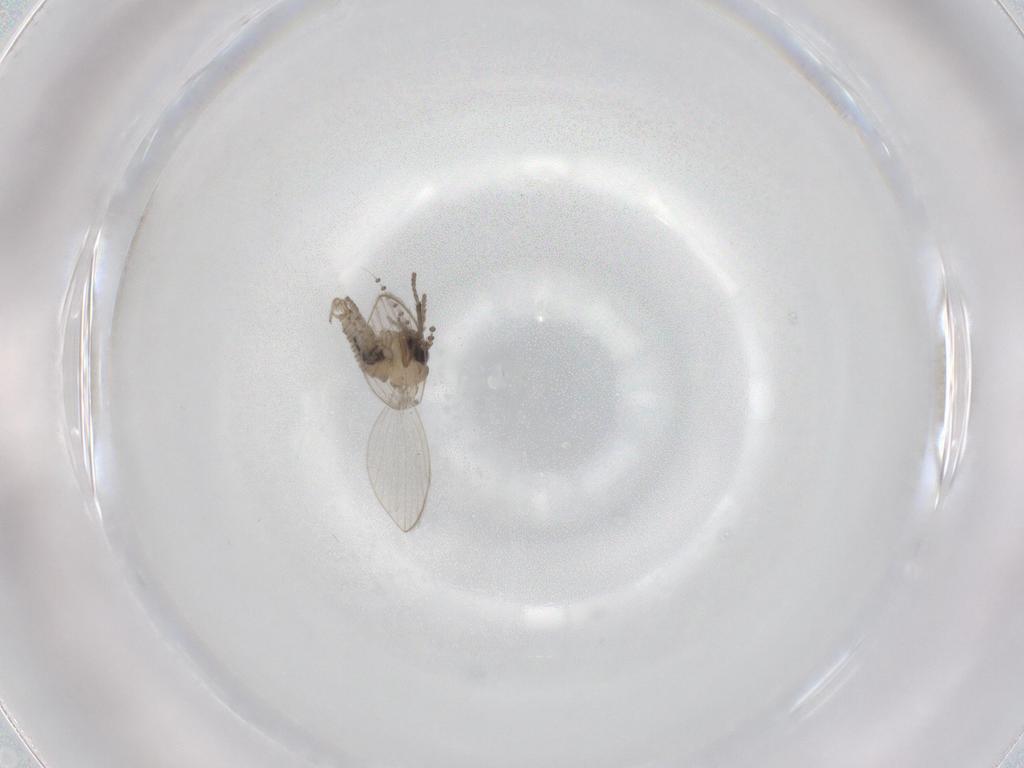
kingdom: Animalia
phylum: Arthropoda
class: Insecta
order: Diptera
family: Psychodidae
